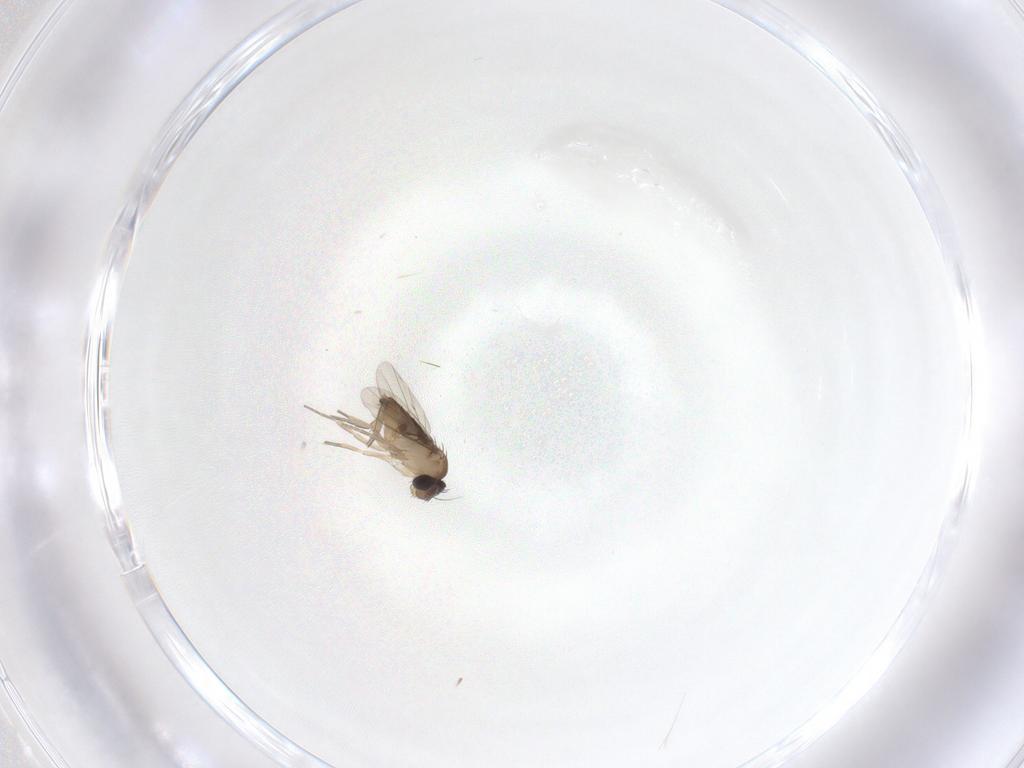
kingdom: Animalia
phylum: Arthropoda
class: Insecta
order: Diptera
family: Phoridae
